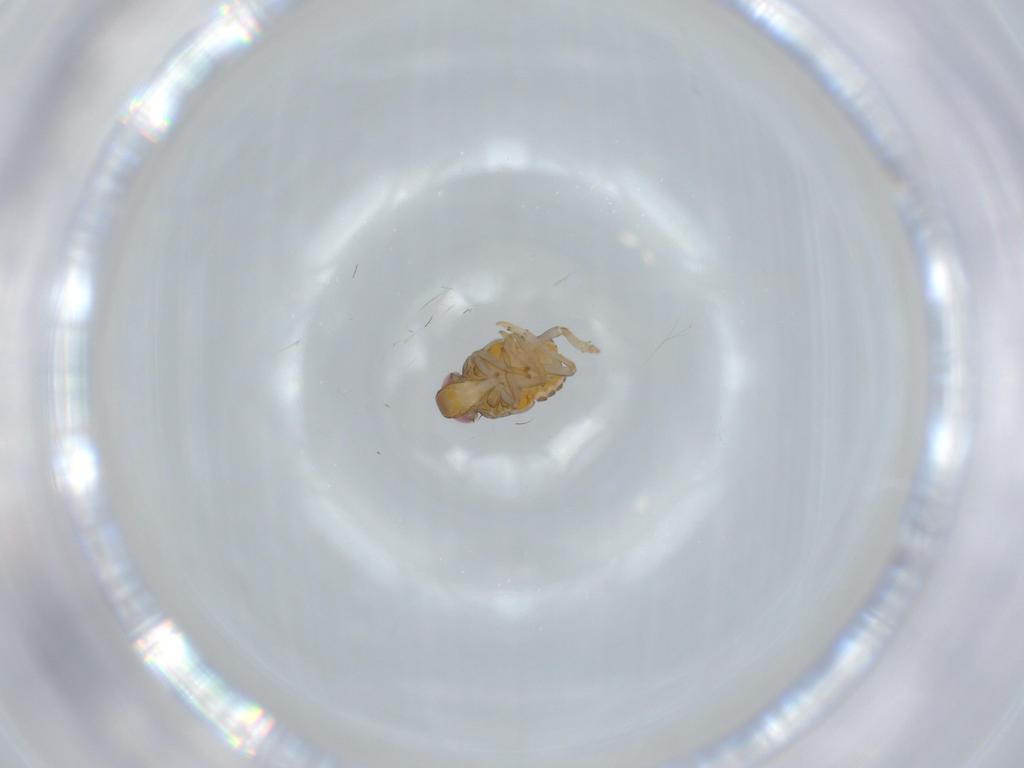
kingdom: Animalia
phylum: Arthropoda
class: Insecta
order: Hemiptera
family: Issidae
